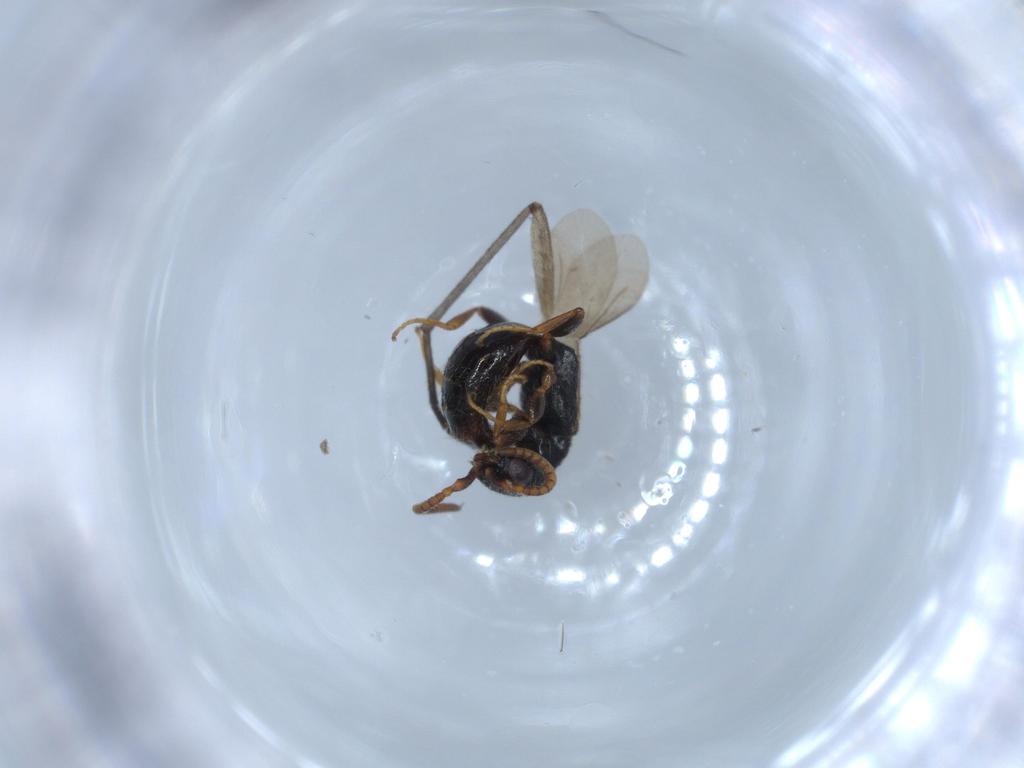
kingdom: Animalia
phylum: Arthropoda
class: Insecta
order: Hymenoptera
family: Bethylidae
